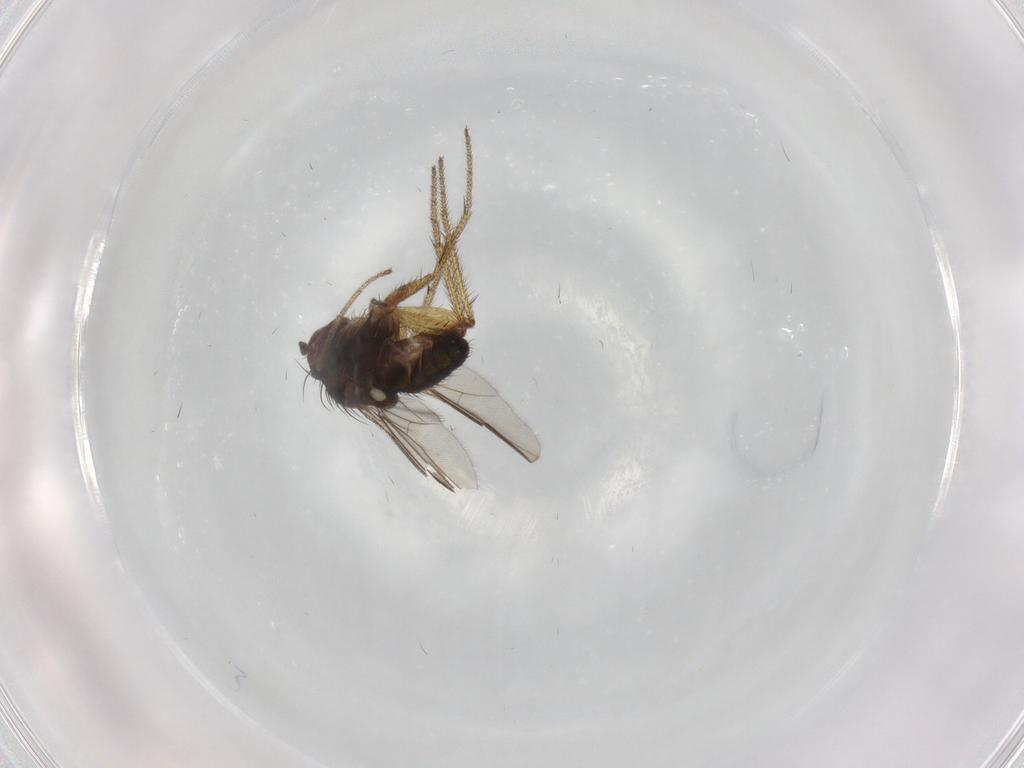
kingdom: Animalia
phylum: Arthropoda
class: Insecta
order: Diptera
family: Dolichopodidae
